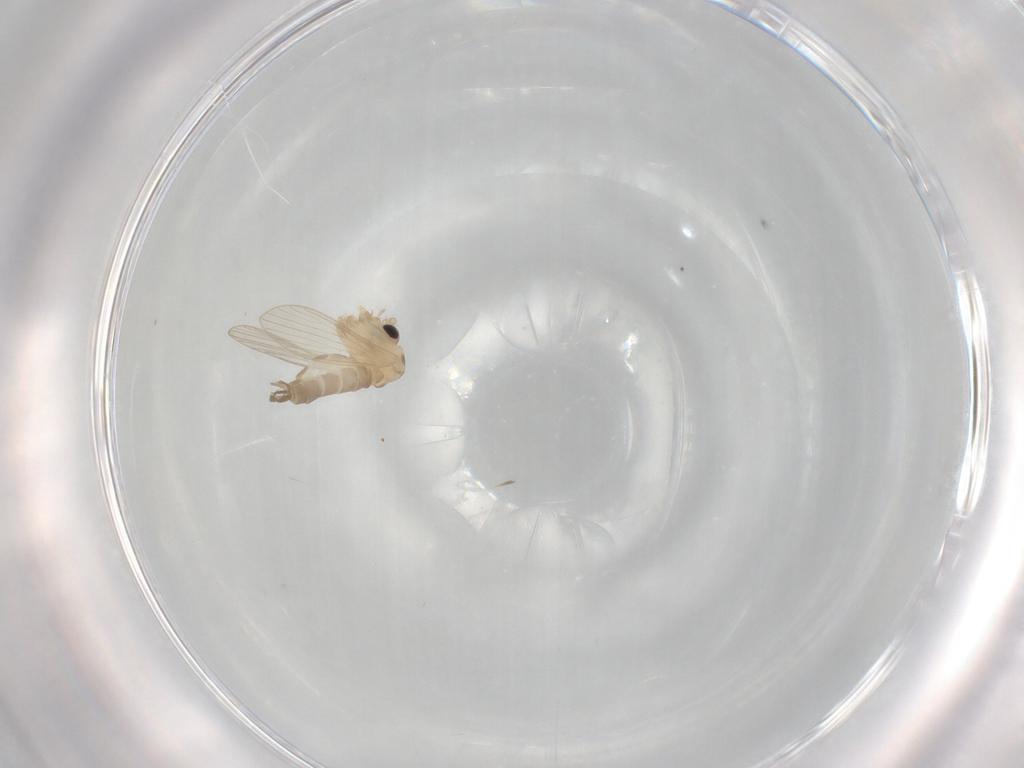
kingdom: Animalia
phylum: Arthropoda
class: Insecta
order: Diptera
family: Psychodidae
